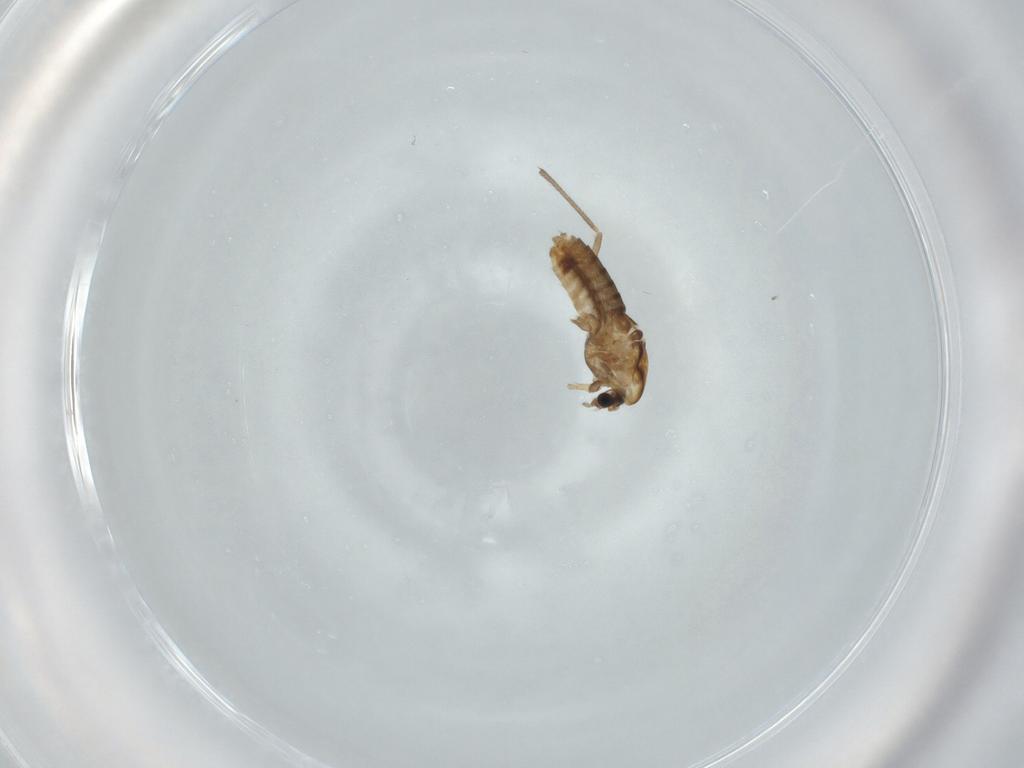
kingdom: Animalia
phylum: Arthropoda
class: Insecta
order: Diptera
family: Chironomidae
